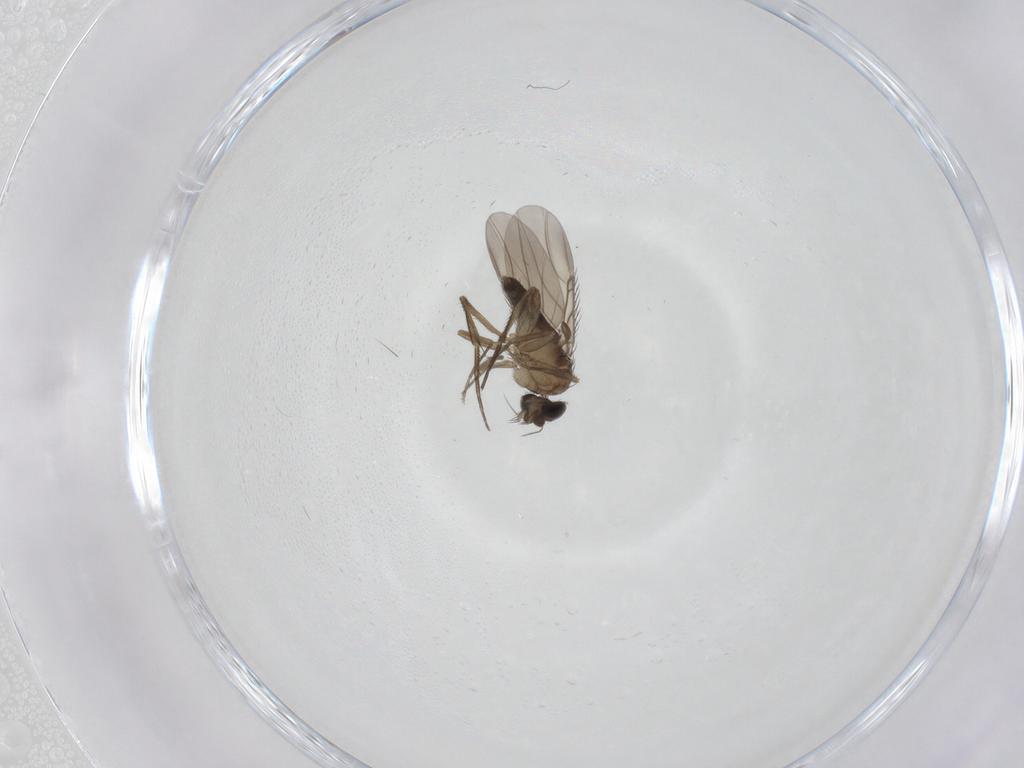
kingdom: Animalia
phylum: Arthropoda
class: Insecta
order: Diptera
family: Phoridae
